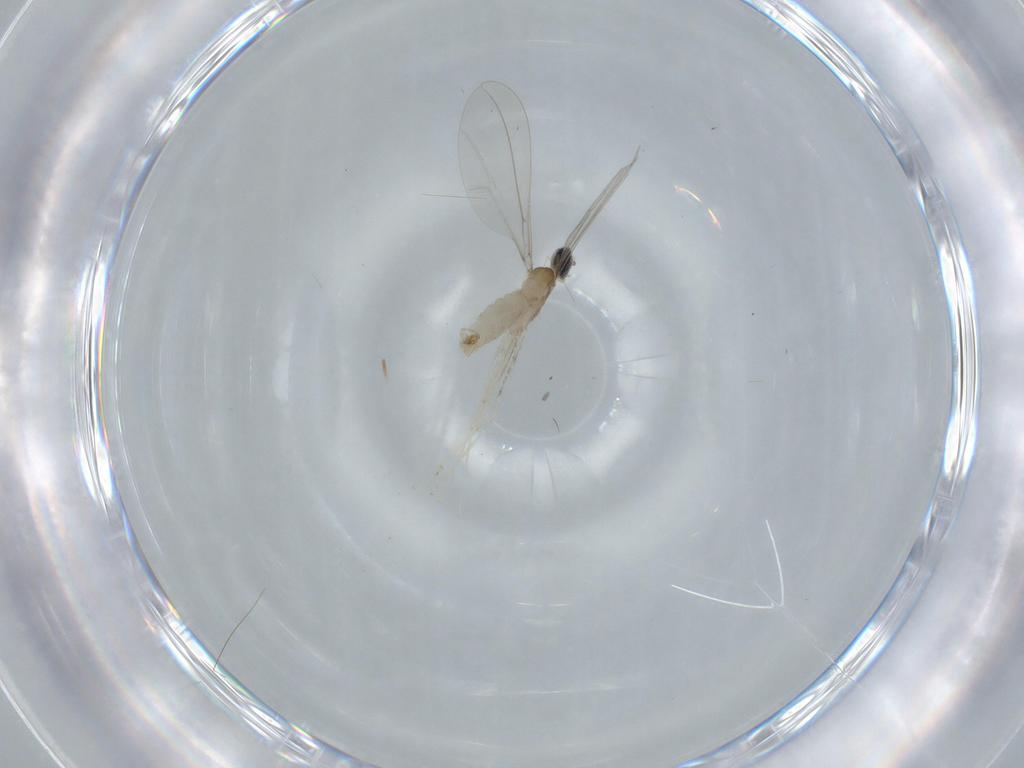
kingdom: Animalia
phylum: Arthropoda
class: Insecta
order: Diptera
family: Cecidomyiidae
